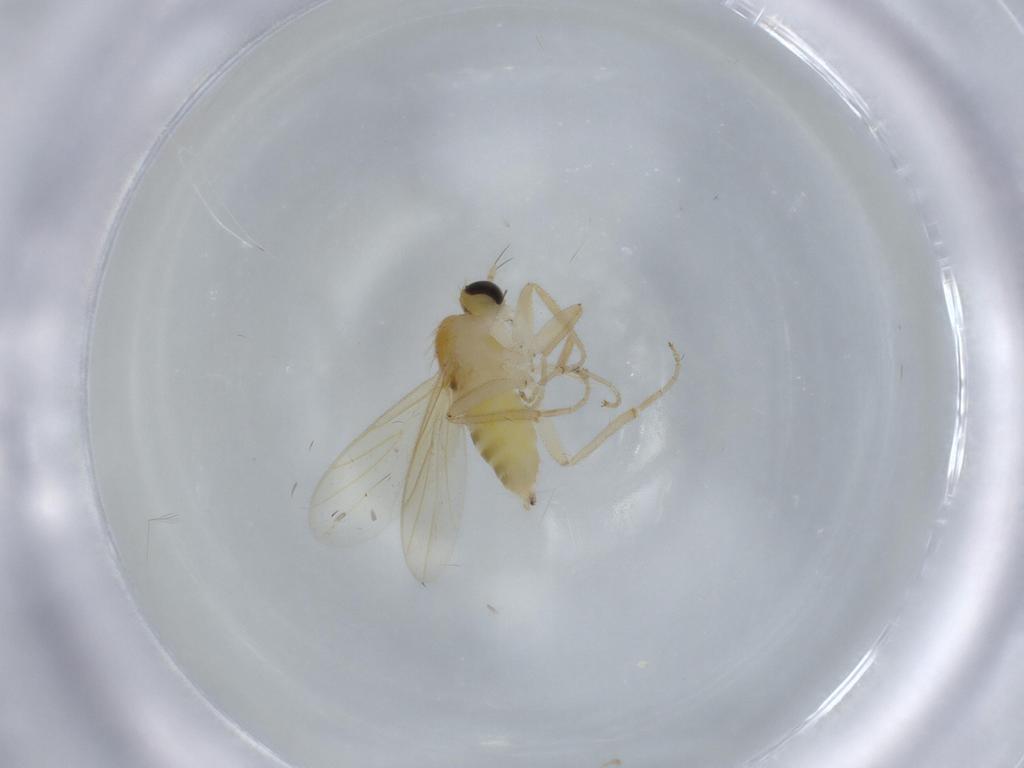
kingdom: Animalia
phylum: Arthropoda
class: Insecta
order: Diptera
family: Hybotidae
